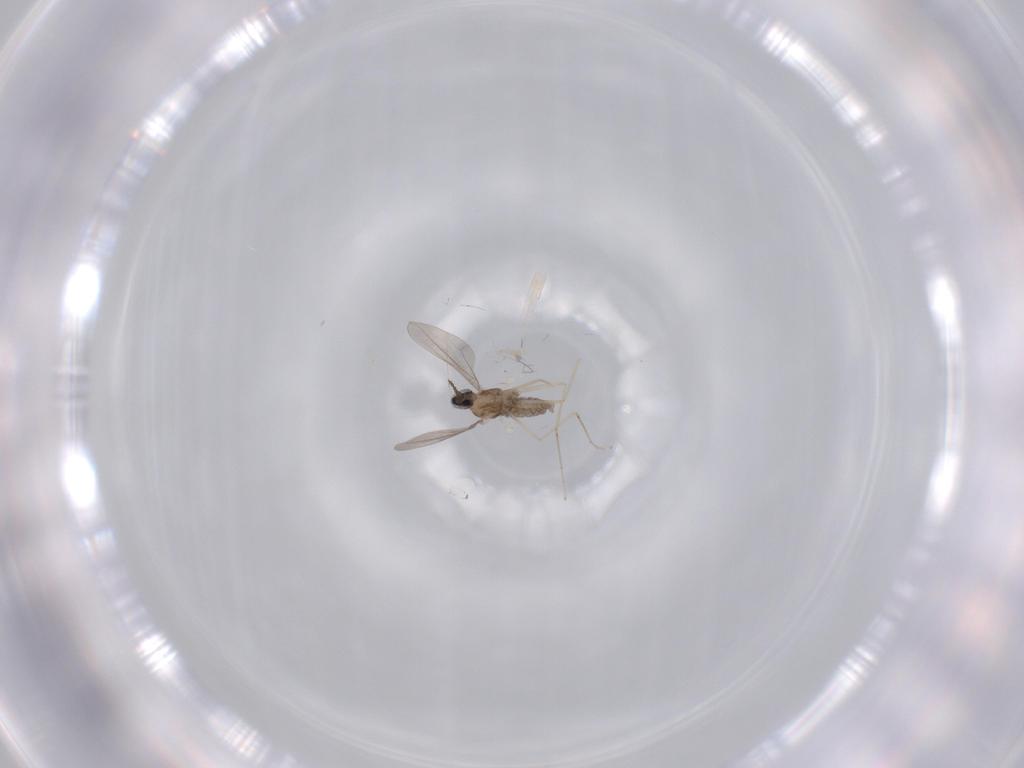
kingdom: Animalia
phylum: Arthropoda
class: Insecta
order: Diptera
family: Cecidomyiidae
